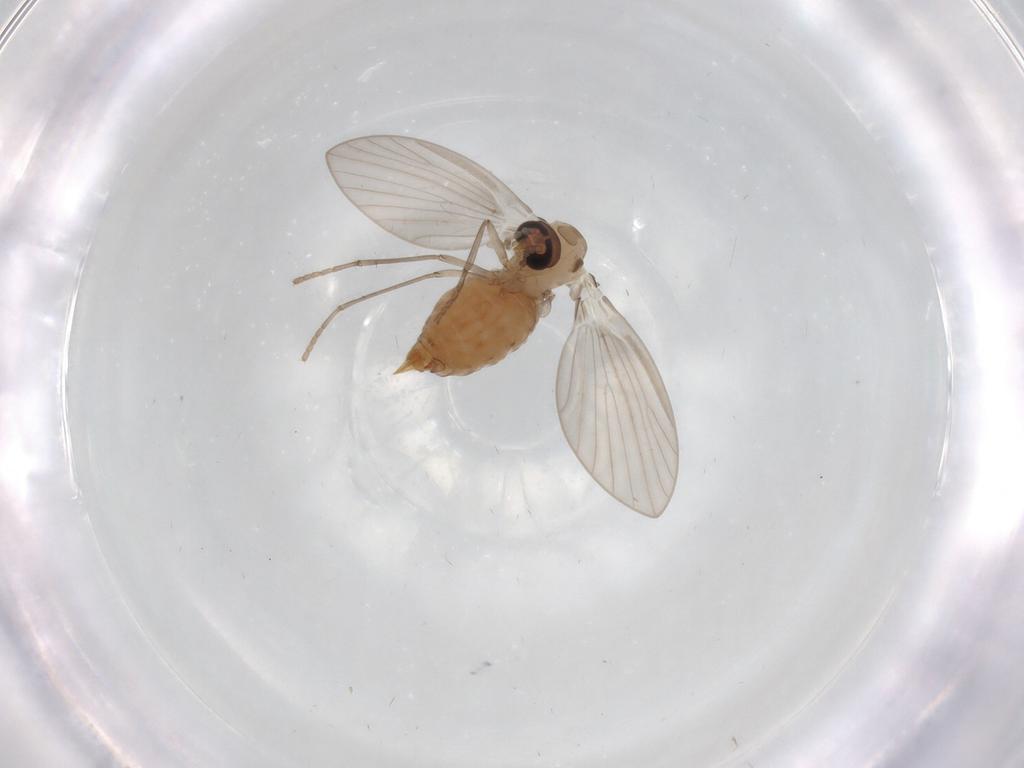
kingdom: Animalia
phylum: Arthropoda
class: Insecta
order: Diptera
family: Psychodidae
